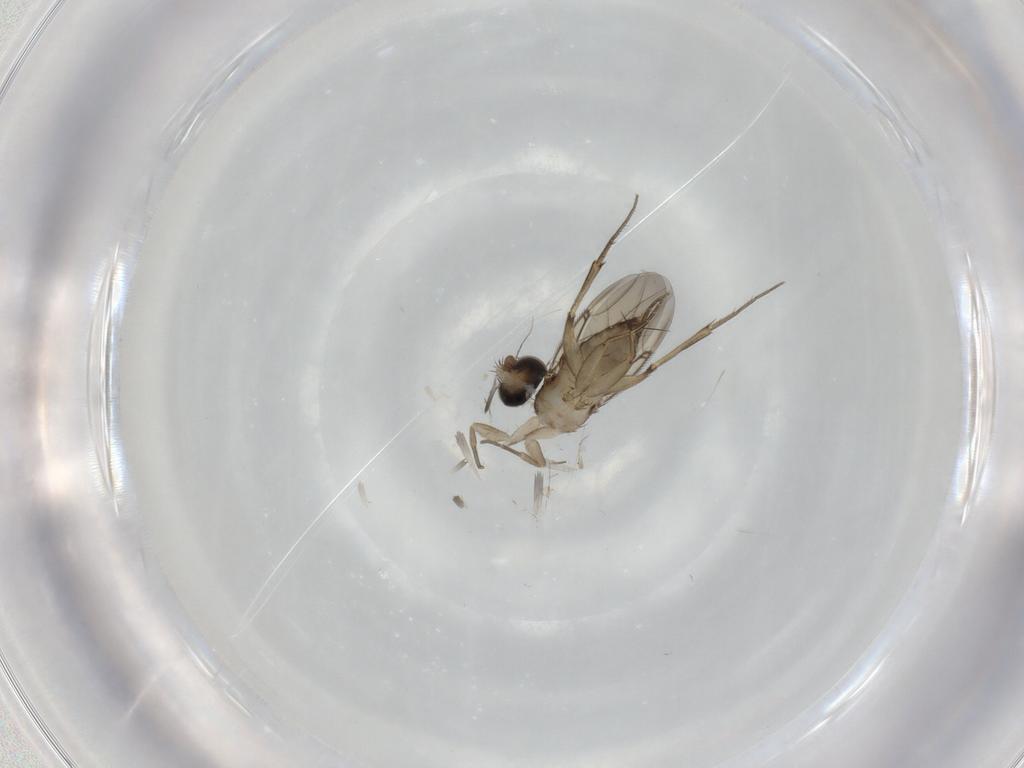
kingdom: Animalia
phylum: Arthropoda
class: Insecta
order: Diptera
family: Phoridae
